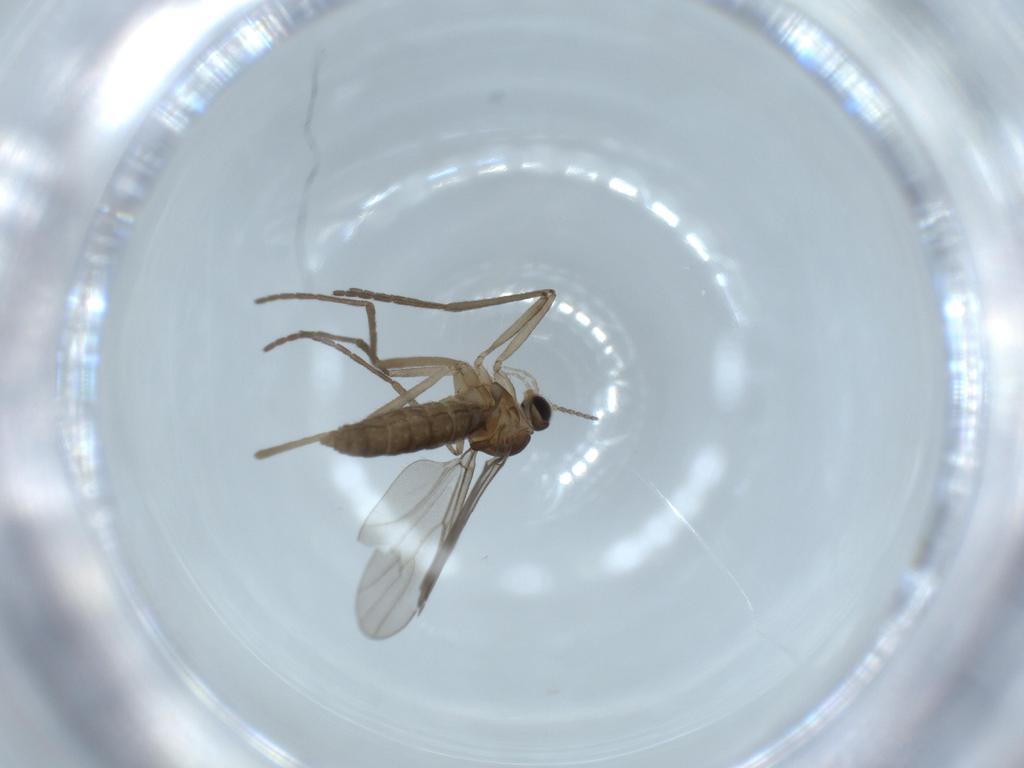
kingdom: Animalia
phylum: Arthropoda
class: Insecta
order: Diptera
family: Cecidomyiidae
